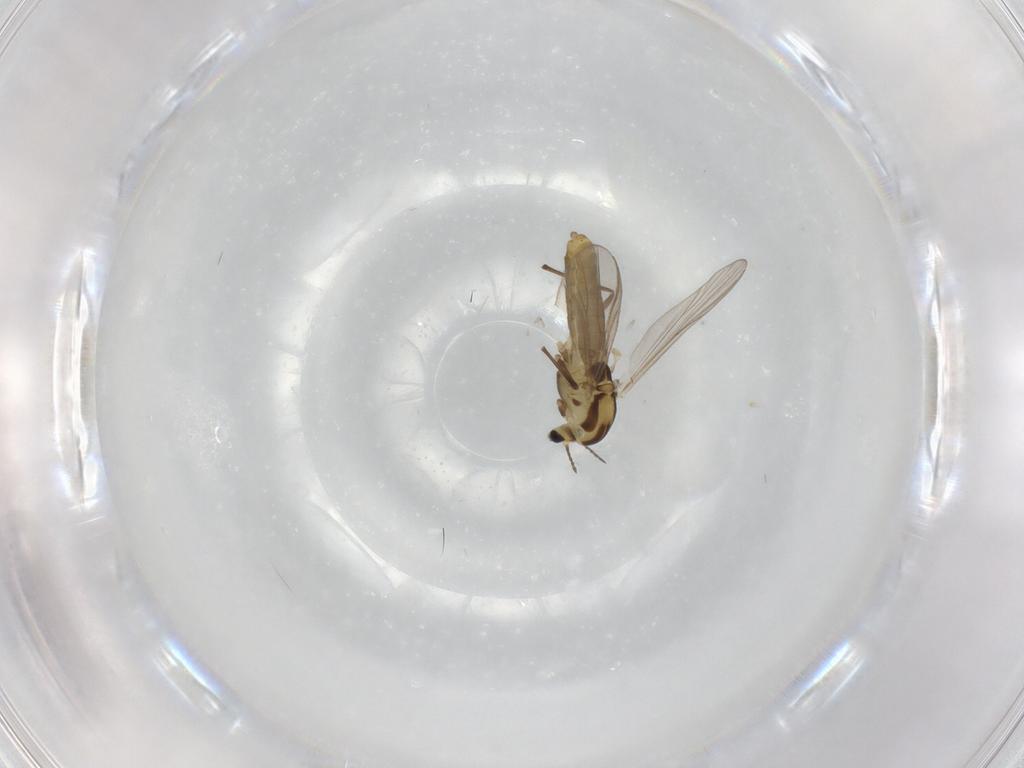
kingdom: Animalia
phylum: Arthropoda
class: Insecta
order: Diptera
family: Chironomidae
